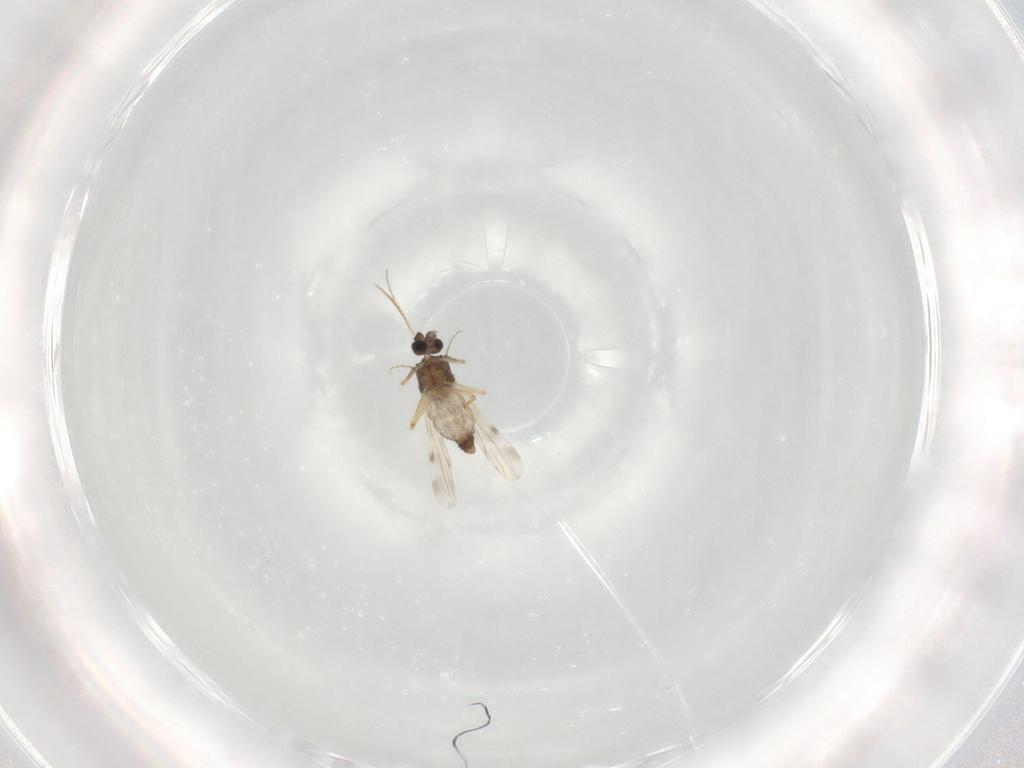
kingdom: Animalia
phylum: Arthropoda
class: Insecta
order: Diptera
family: Ceratopogonidae
